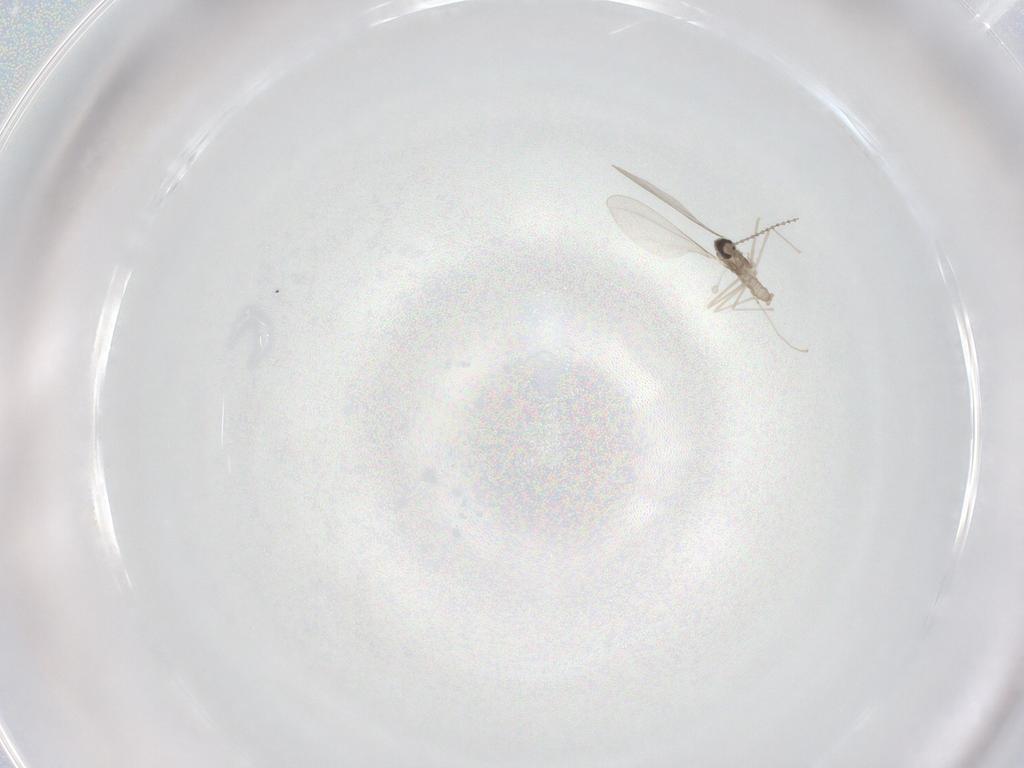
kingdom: Animalia
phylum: Arthropoda
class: Insecta
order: Diptera
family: Cecidomyiidae
